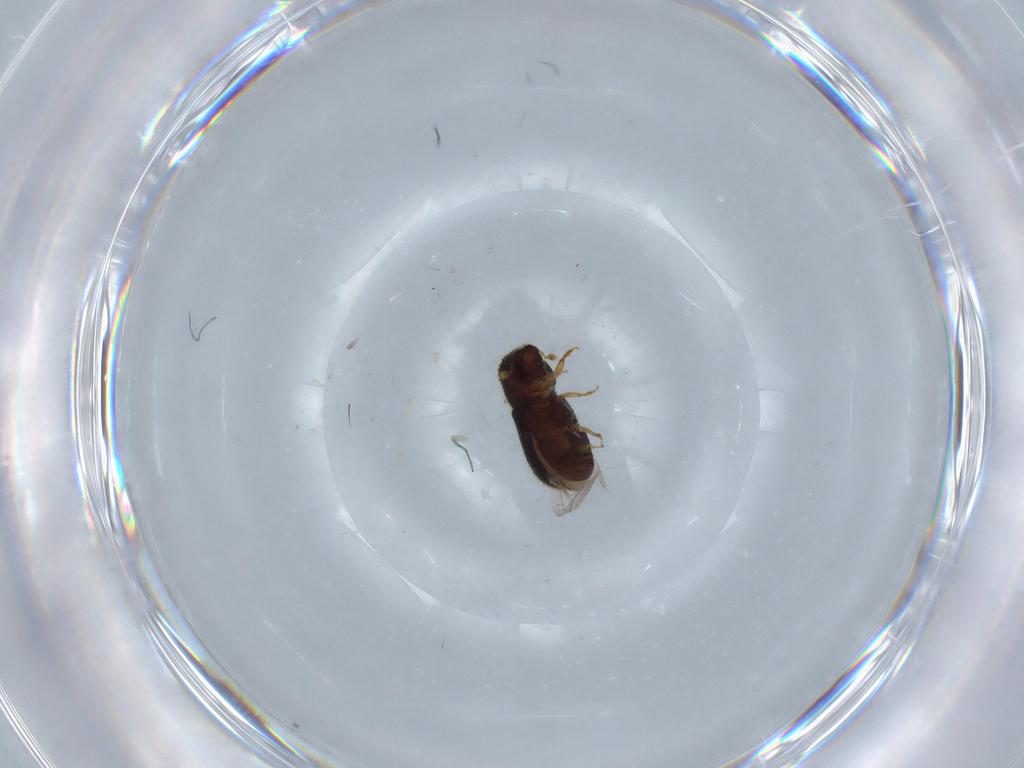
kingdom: Animalia
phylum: Arthropoda
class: Insecta
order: Coleoptera
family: Curculionidae
